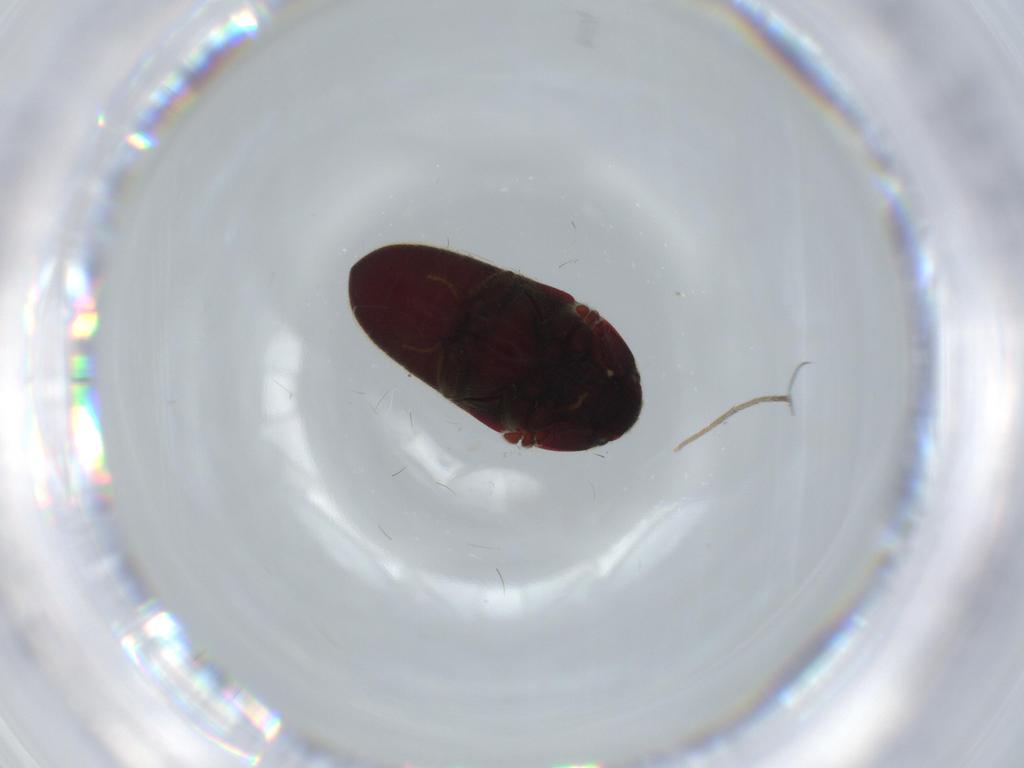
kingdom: Animalia
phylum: Arthropoda
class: Insecta
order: Coleoptera
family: Throscidae
